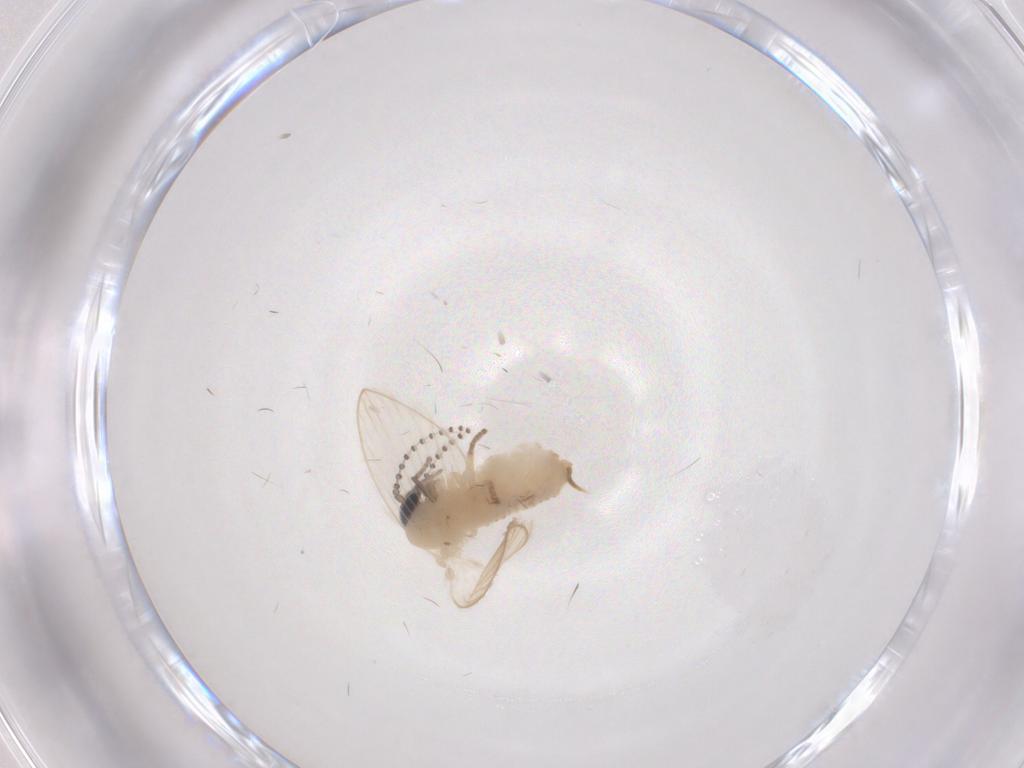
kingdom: Animalia
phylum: Arthropoda
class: Insecta
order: Diptera
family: Psychodidae
